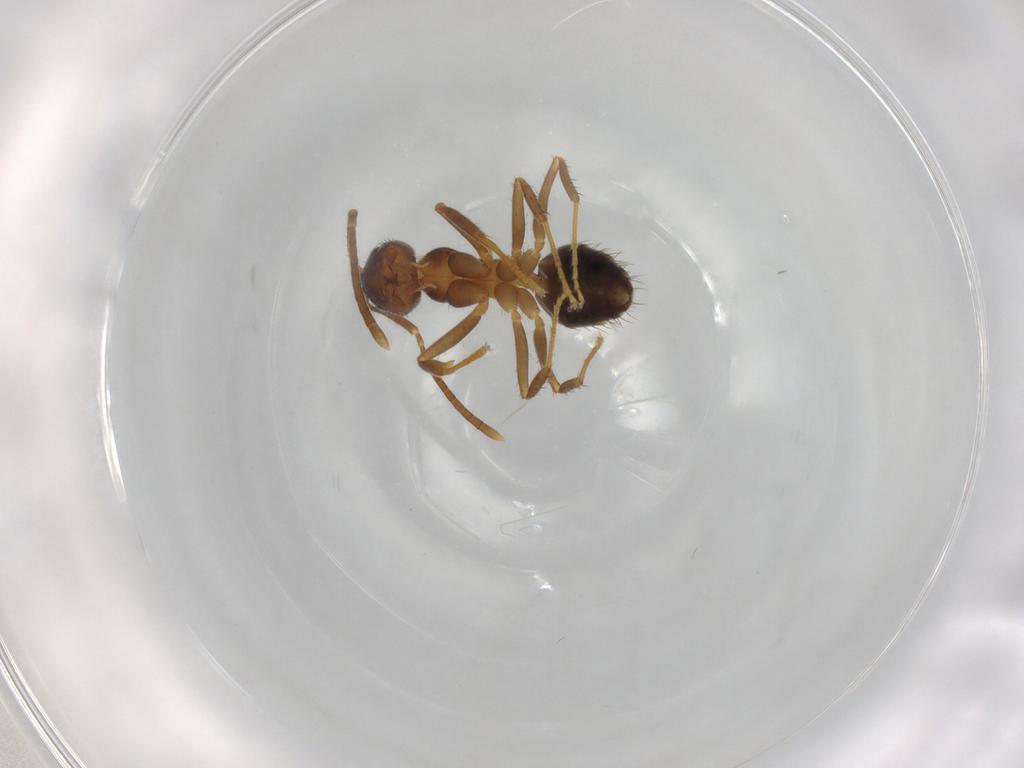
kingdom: Animalia
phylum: Arthropoda
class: Insecta
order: Hymenoptera
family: Formicidae
